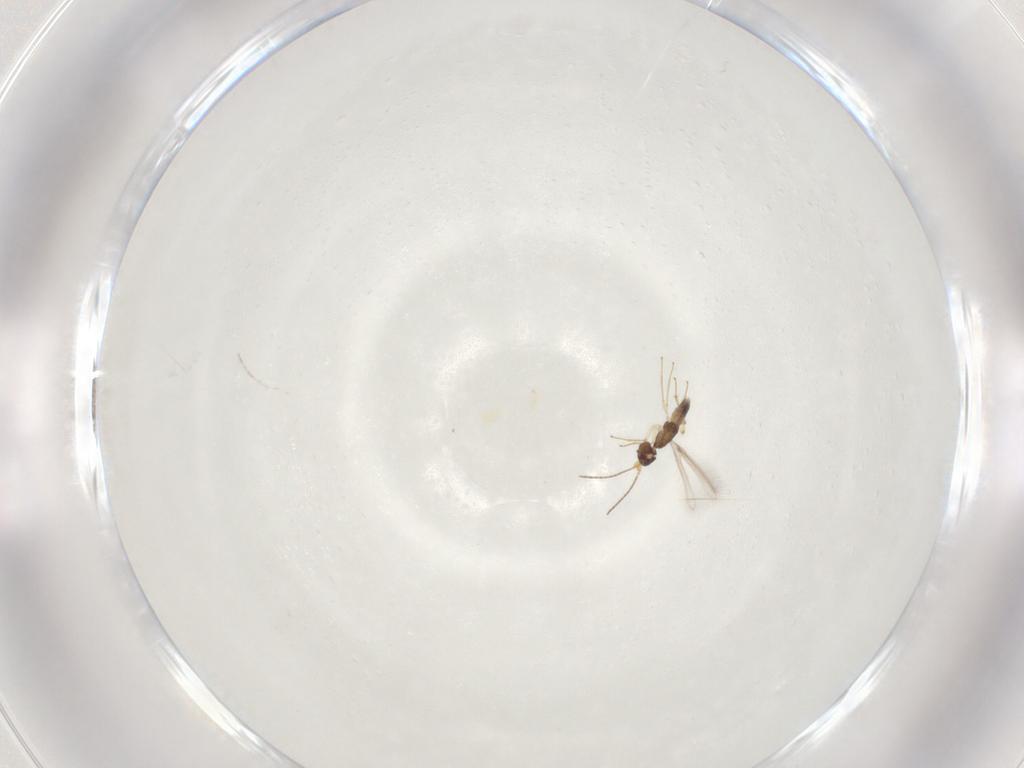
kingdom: Animalia
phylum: Arthropoda
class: Insecta
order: Hymenoptera
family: Mymaridae
